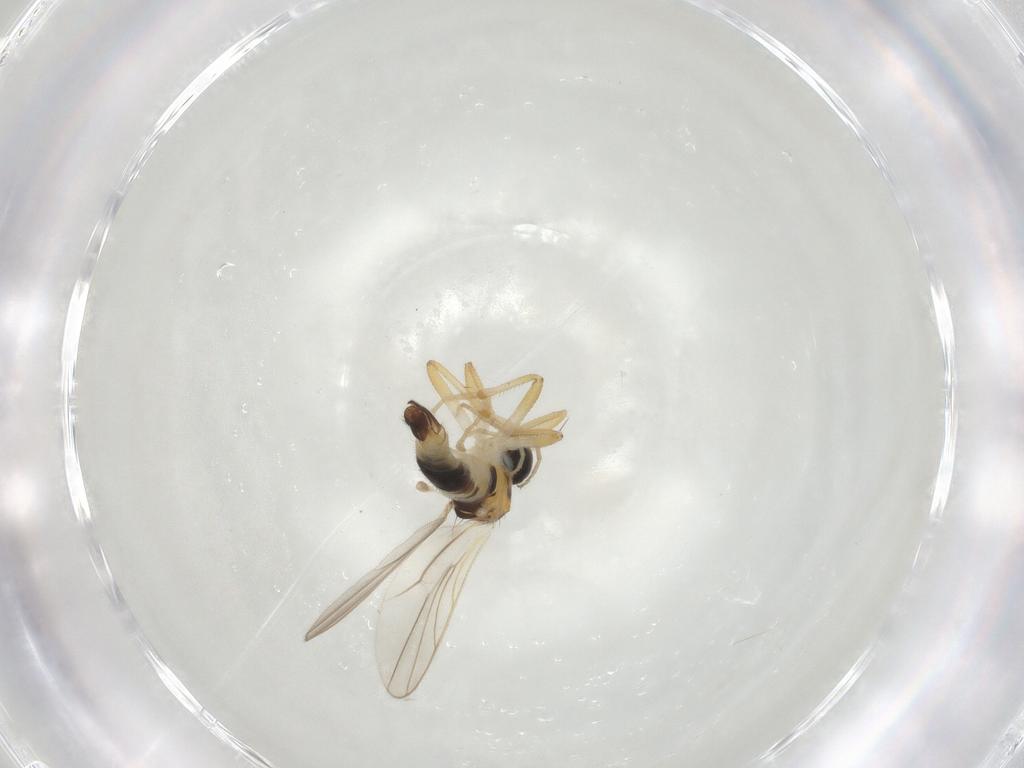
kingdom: Animalia
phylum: Arthropoda
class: Insecta
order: Diptera
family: Hybotidae
